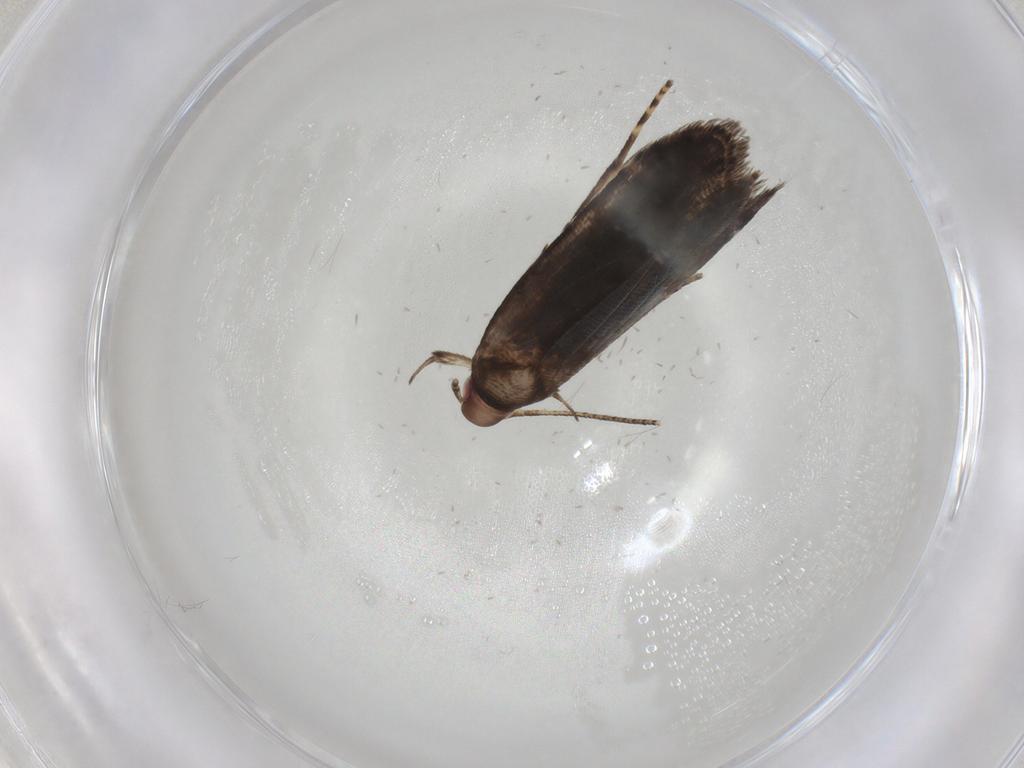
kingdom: Animalia
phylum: Arthropoda
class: Insecta
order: Lepidoptera
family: Gelechiidae
